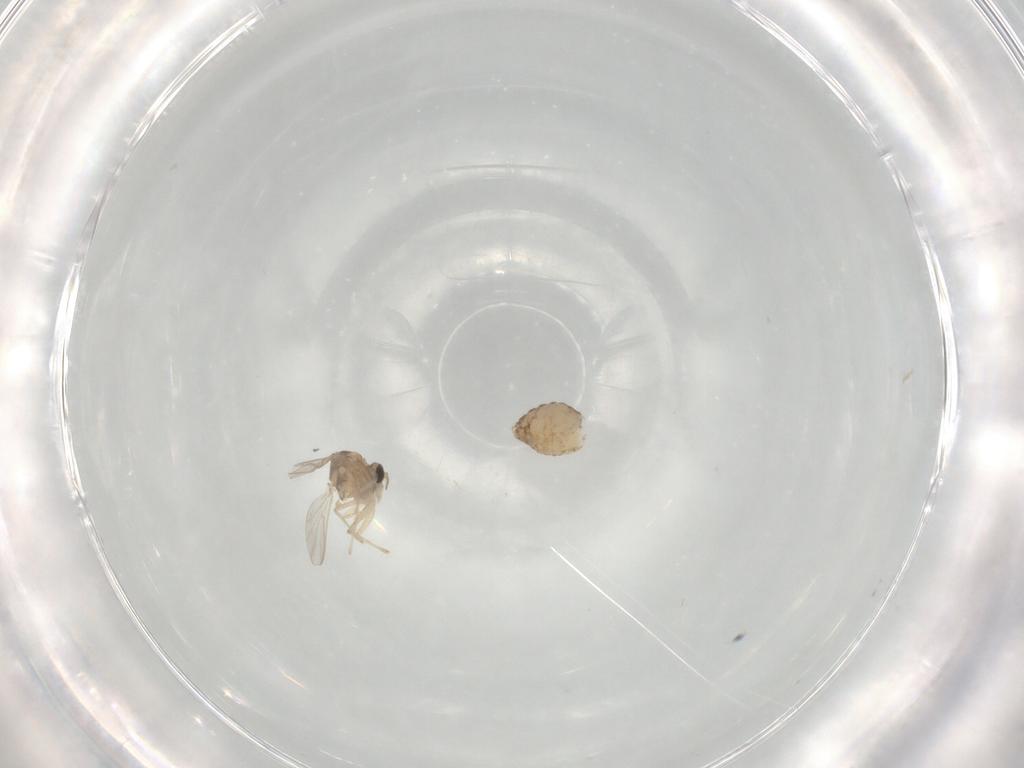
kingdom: Animalia
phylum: Arthropoda
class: Insecta
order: Diptera
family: Chironomidae
